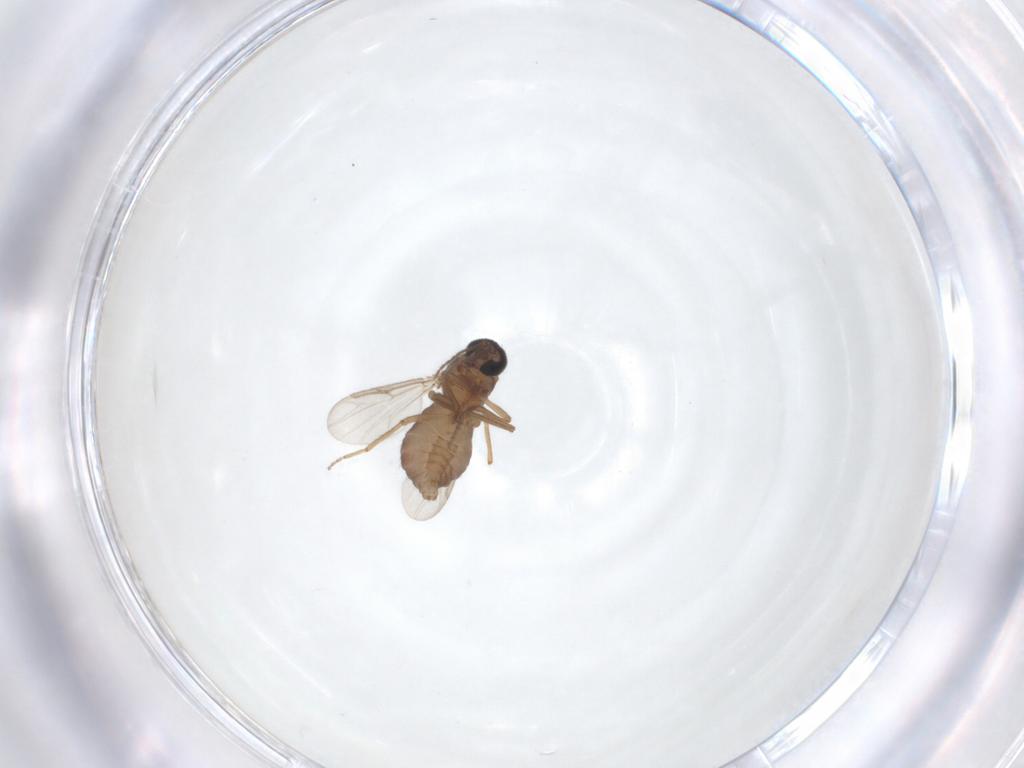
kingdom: Animalia
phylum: Arthropoda
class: Insecta
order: Diptera
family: Ceratopogonidae
